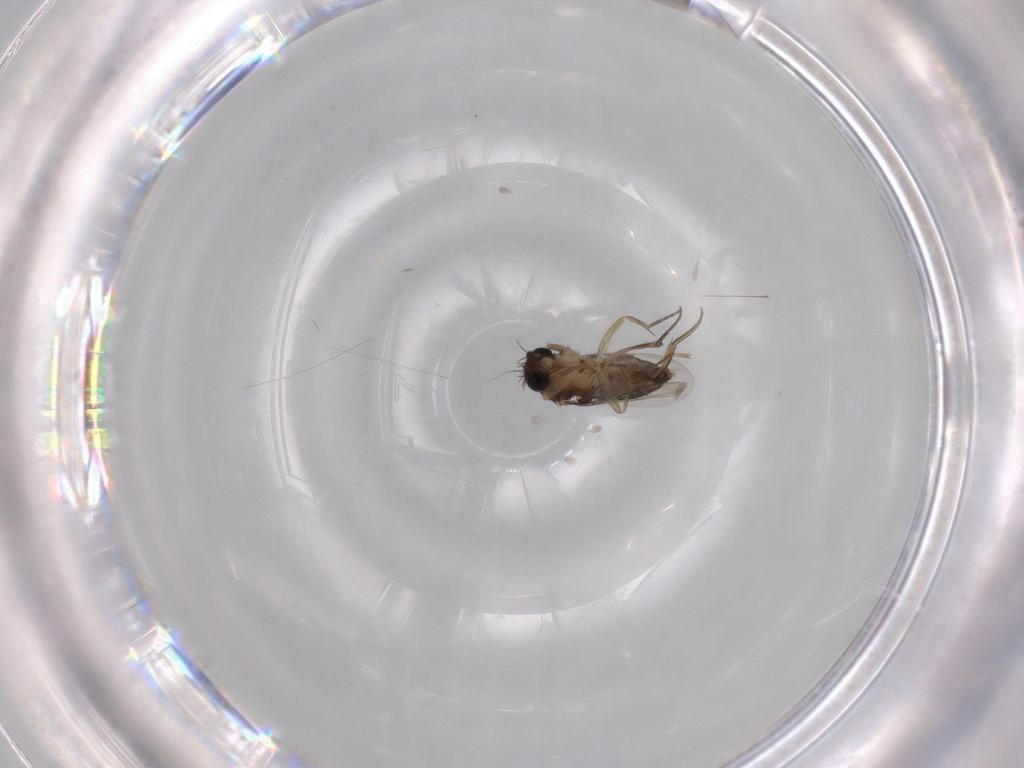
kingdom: Animalia
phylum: Arthropoda
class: Insecta
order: Diptera
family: Phoridae
